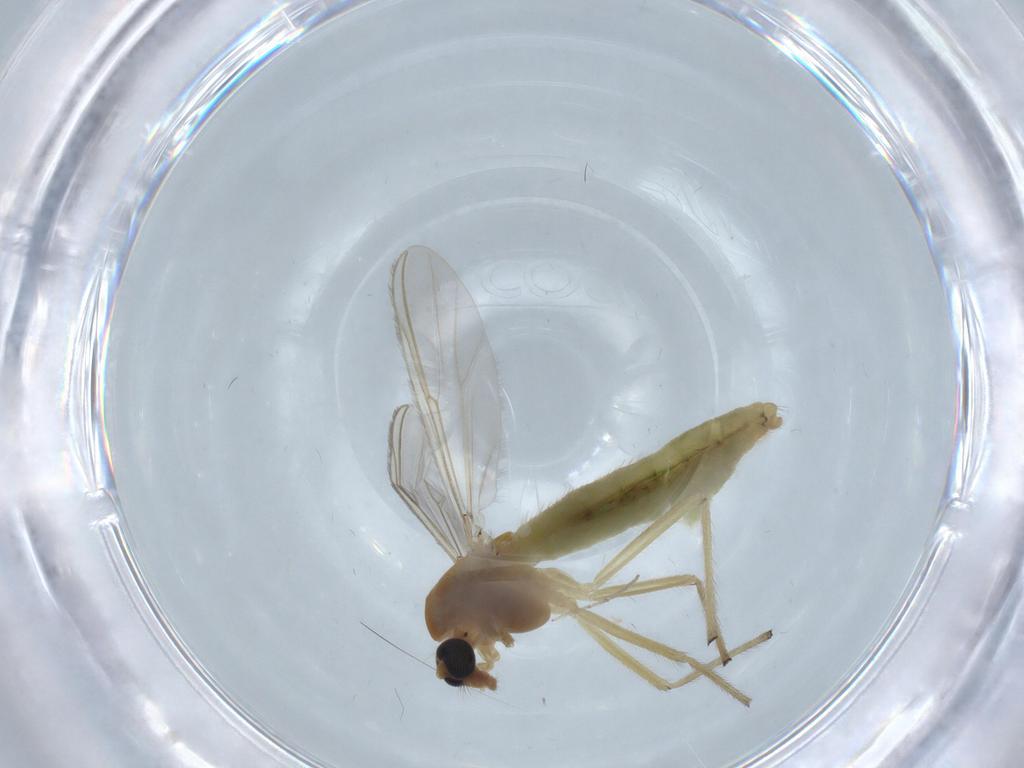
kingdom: Animalia
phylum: Arthropoda
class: Insecta
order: Diptera
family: Chironomidae
